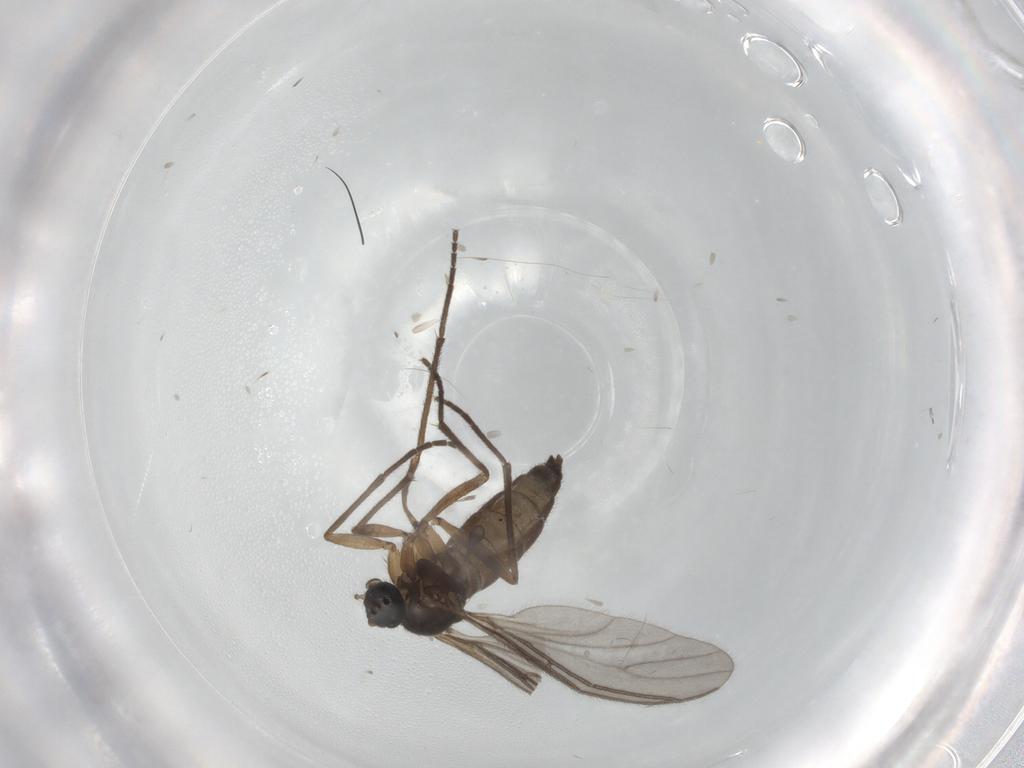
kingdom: Animalia
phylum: Arthropoda
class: Insecta
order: Diptera
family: Sciaridae
